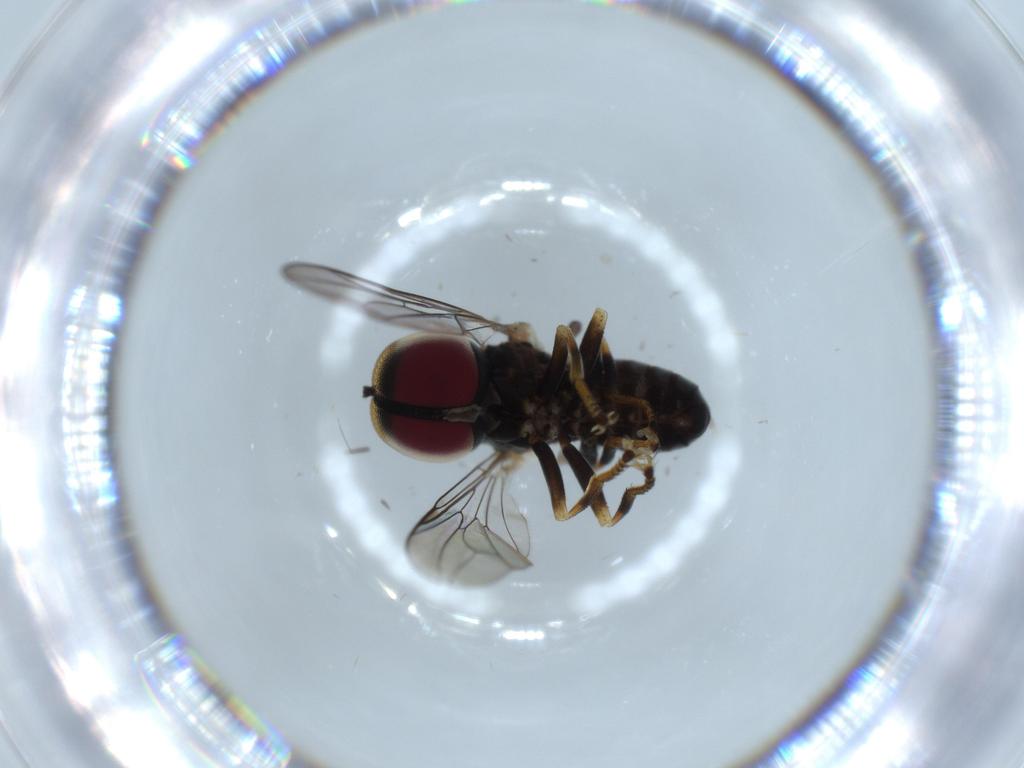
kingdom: Animalia
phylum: Arthropoda
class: Insecta
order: Diptera
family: Pipunculidae
